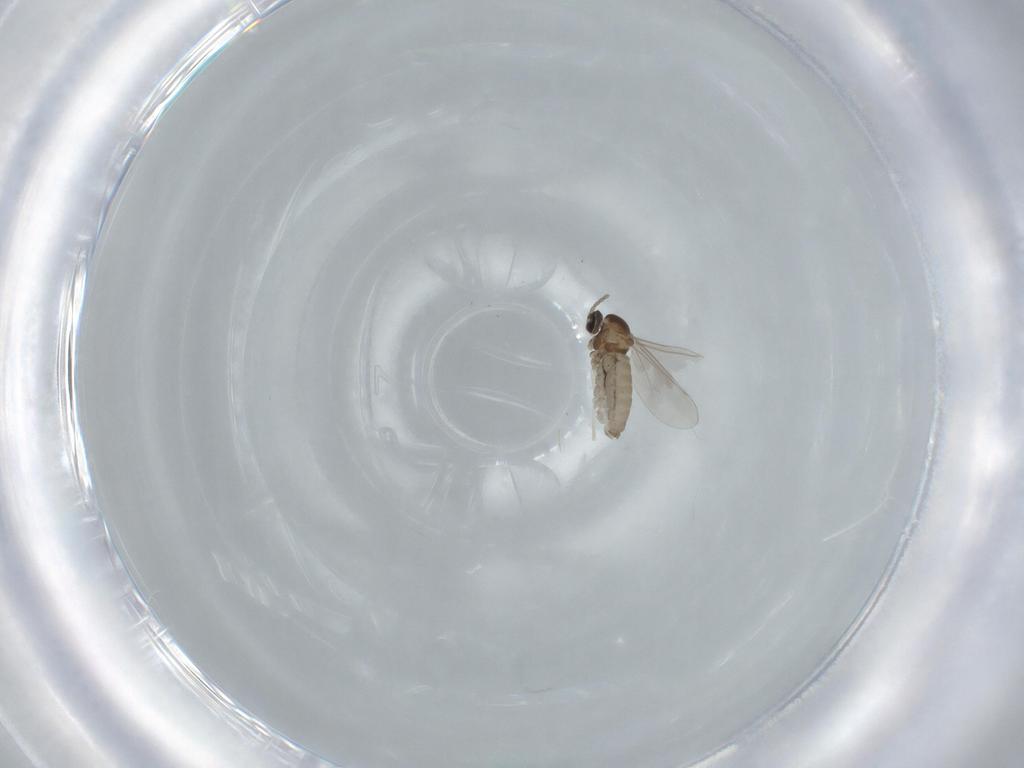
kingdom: Animalia
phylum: Arthropoda
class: Insecta
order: Diptera
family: Cecidomyiidae
